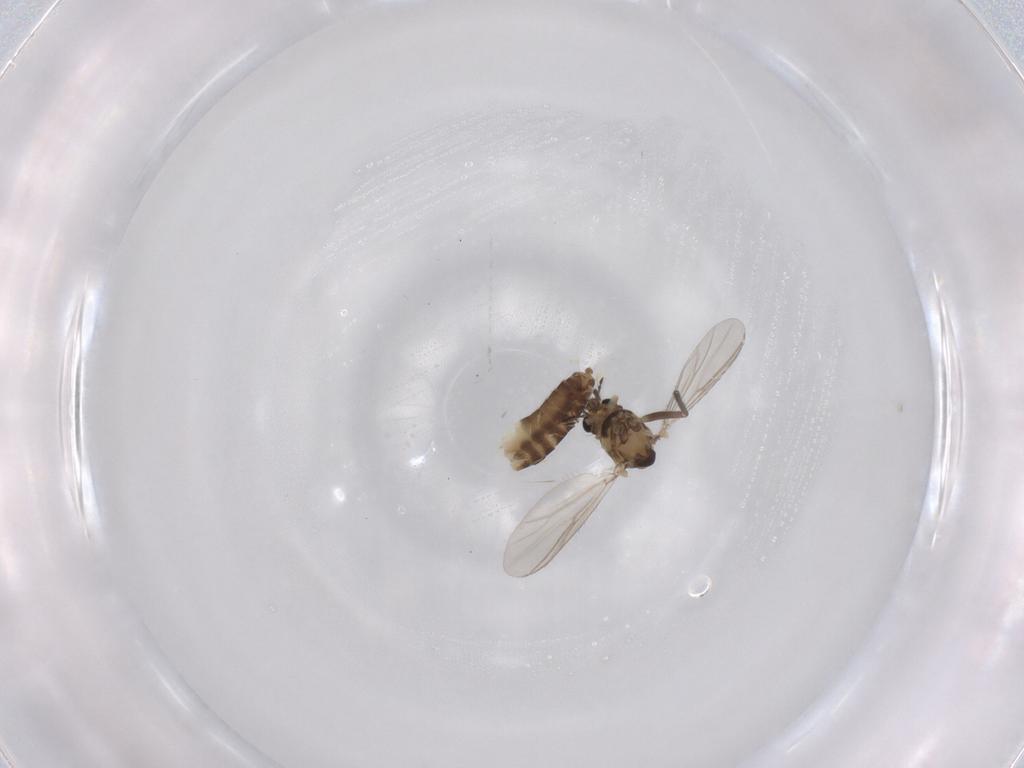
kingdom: Animalia
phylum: Arthropoda
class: Insecta
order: Diptera
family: Chironomidae
